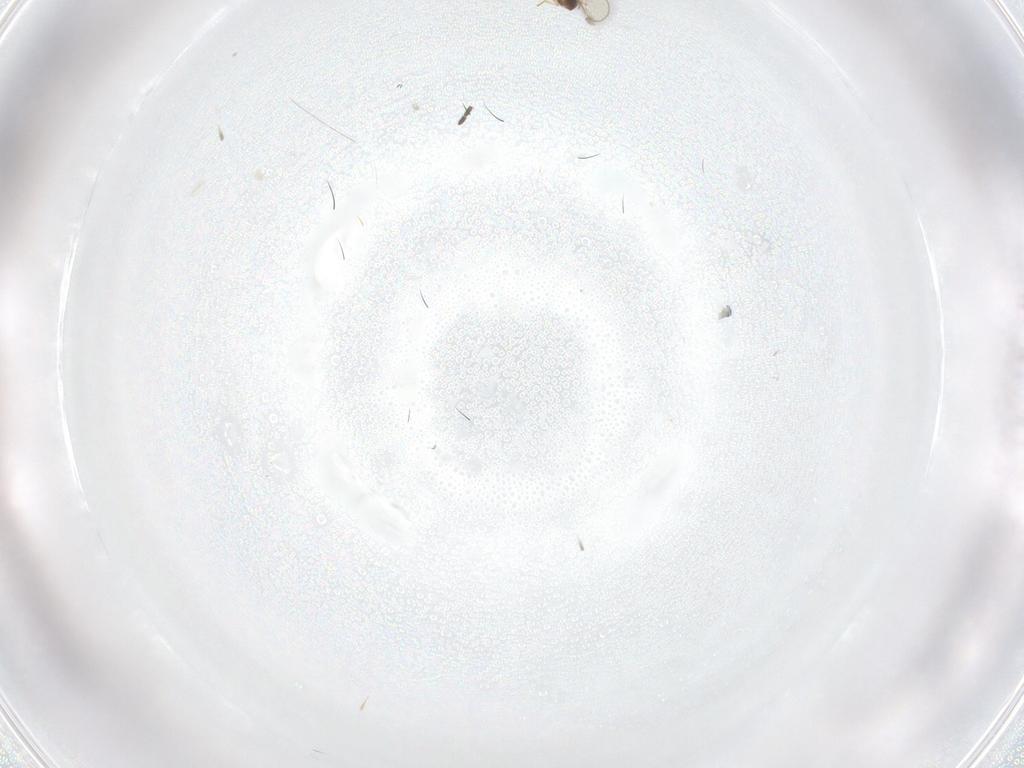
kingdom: Animalia
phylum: Arthropoda
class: Insecta
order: Hymenoptera
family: Eulophidae
